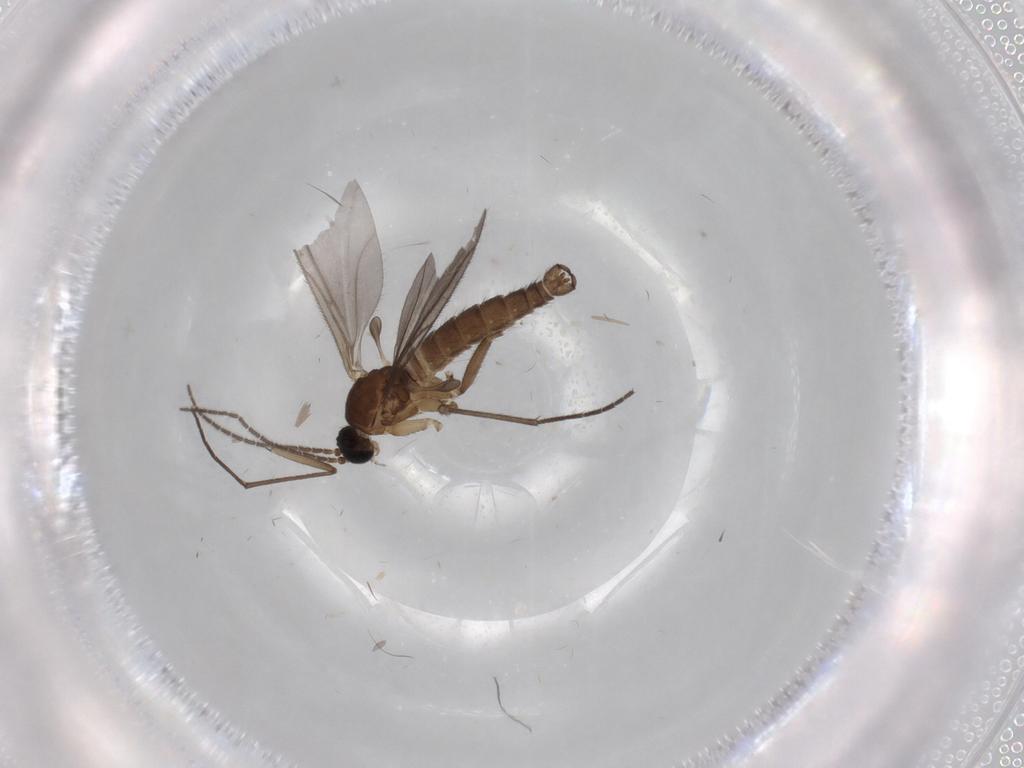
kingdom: Animalia
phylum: Arthropoda
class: Insecta
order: Diptera
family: Sciaridae
